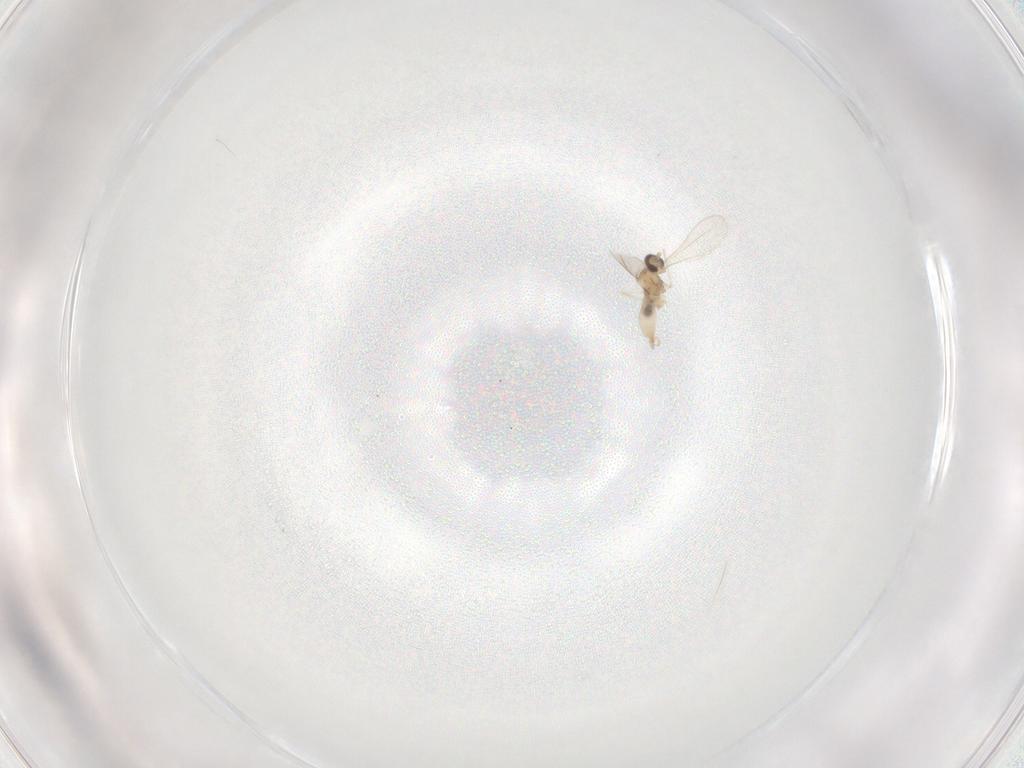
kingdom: Animalia
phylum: Arthropoda
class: Insecta
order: Diptera
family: Cecidomyiidae
